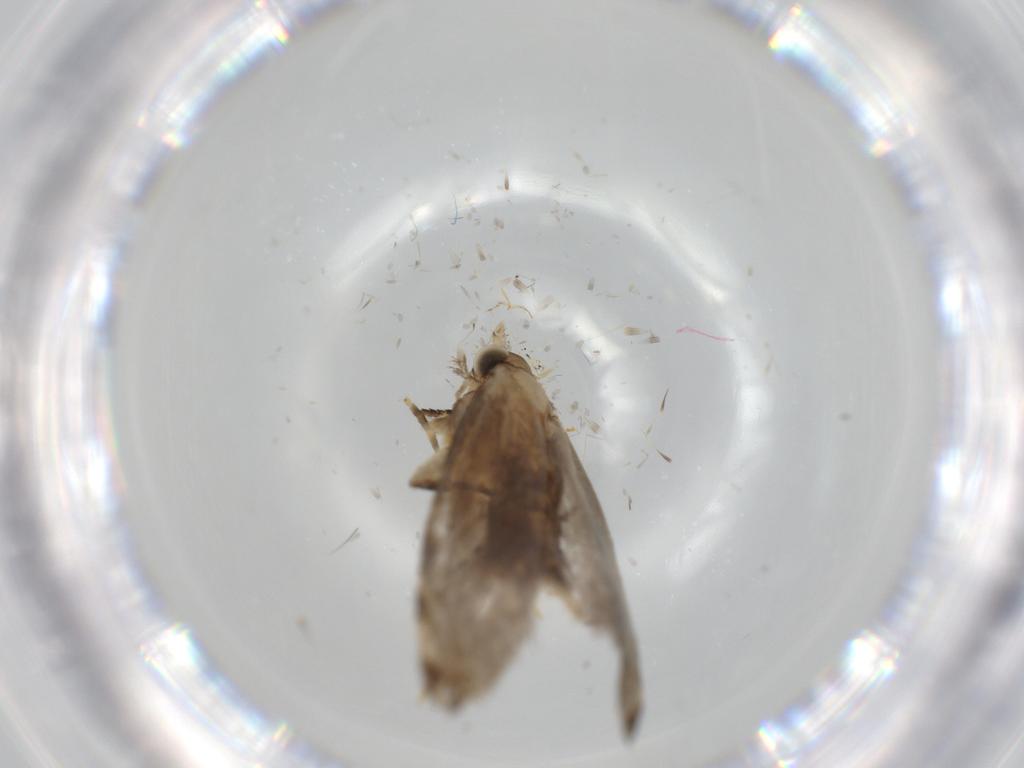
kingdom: Animalia
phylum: Arthropoda
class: Insecta
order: Lepidoptera
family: Tineidae
